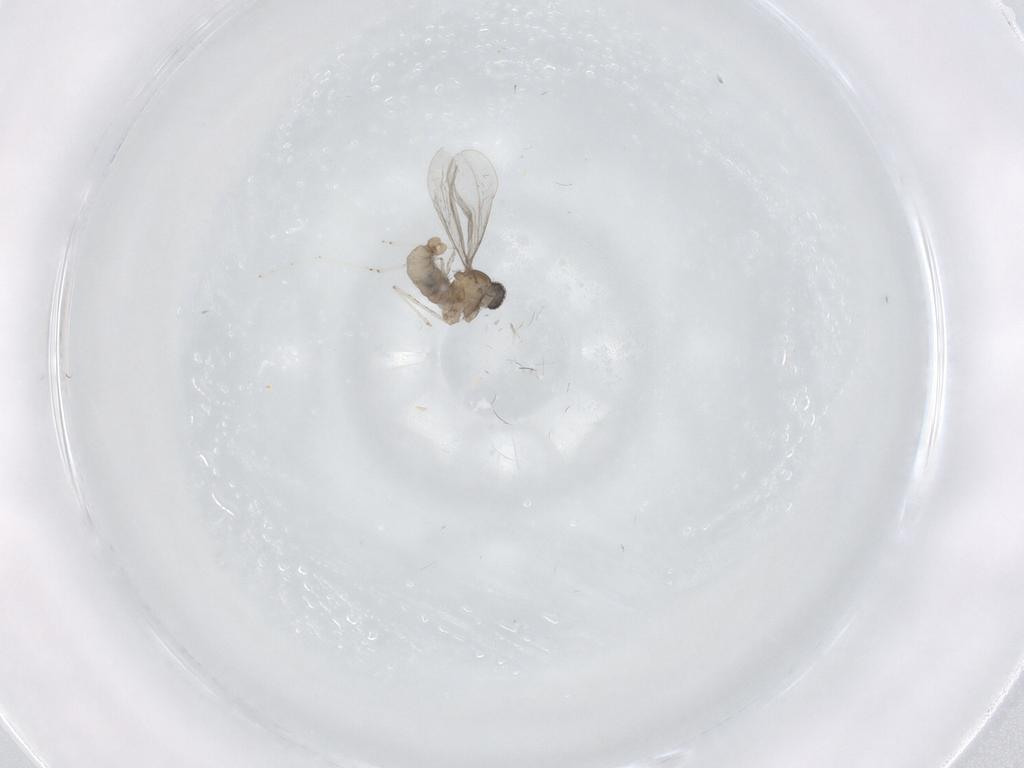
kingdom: Animalia
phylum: Arthropoda
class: Insecta
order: Diptera
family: Cecidomyiidae
